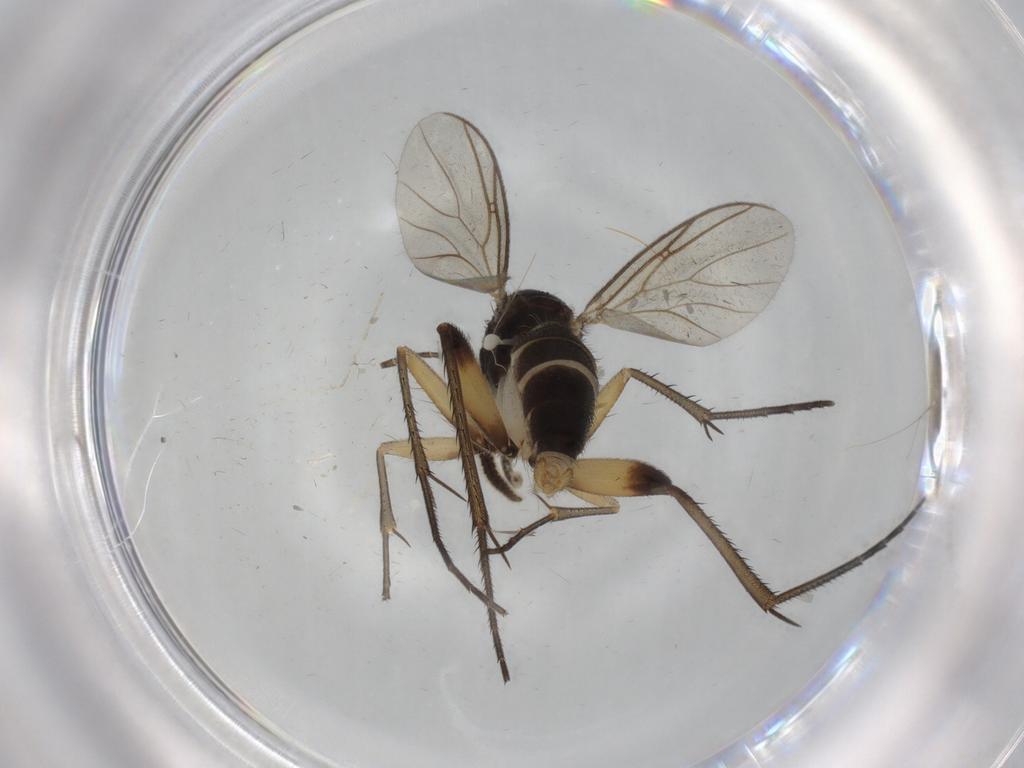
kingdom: Animalia
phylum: Arthropoda
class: Insecta
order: Diptera
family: Mycetophilidae
